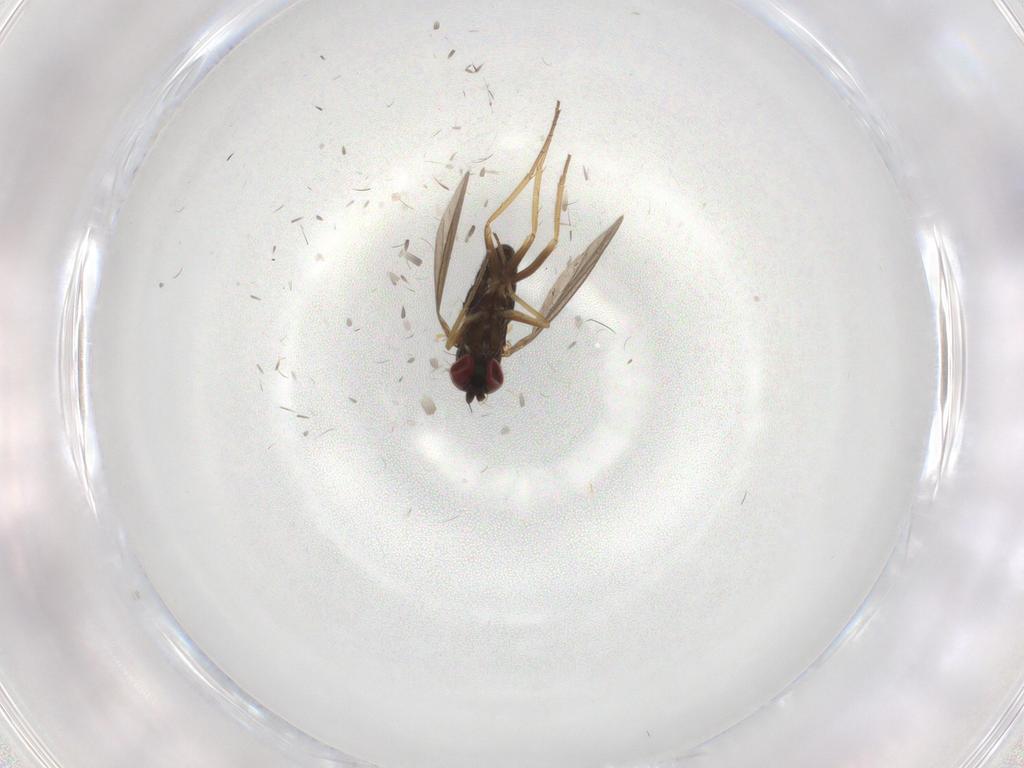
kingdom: Animalia
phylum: Arthropoda
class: Insecta
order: Diptera
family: Dolichopodidae
